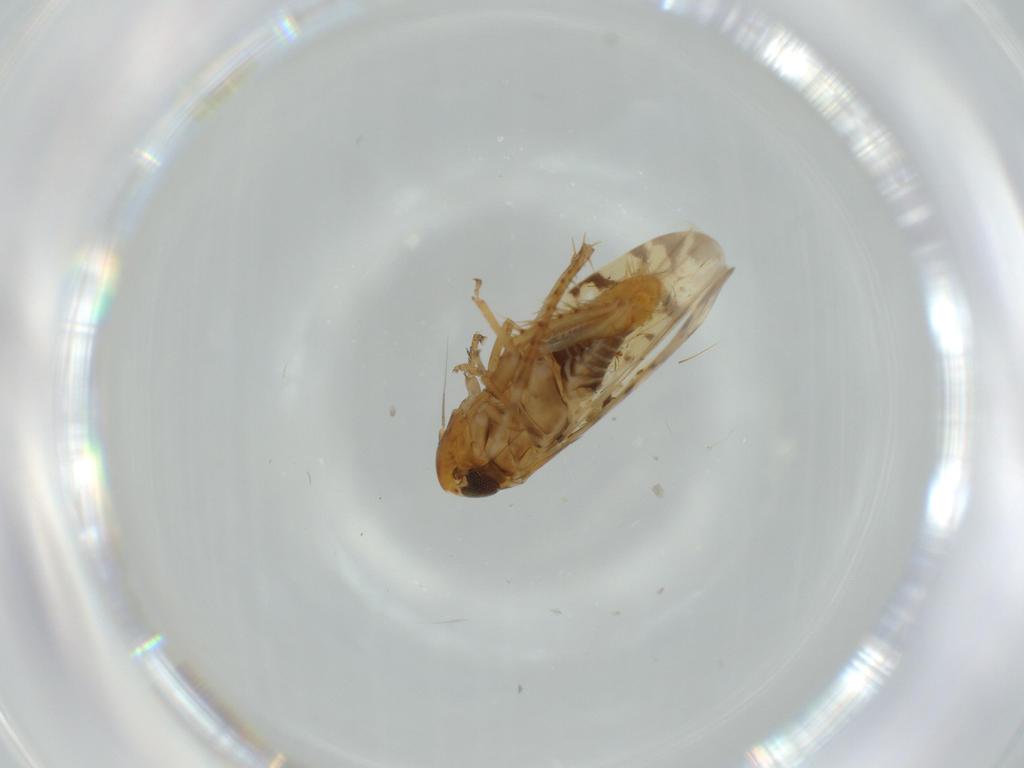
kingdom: Animalia
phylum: Arthropoda
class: Insecta
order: Hemiptera
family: Cicadellidae
